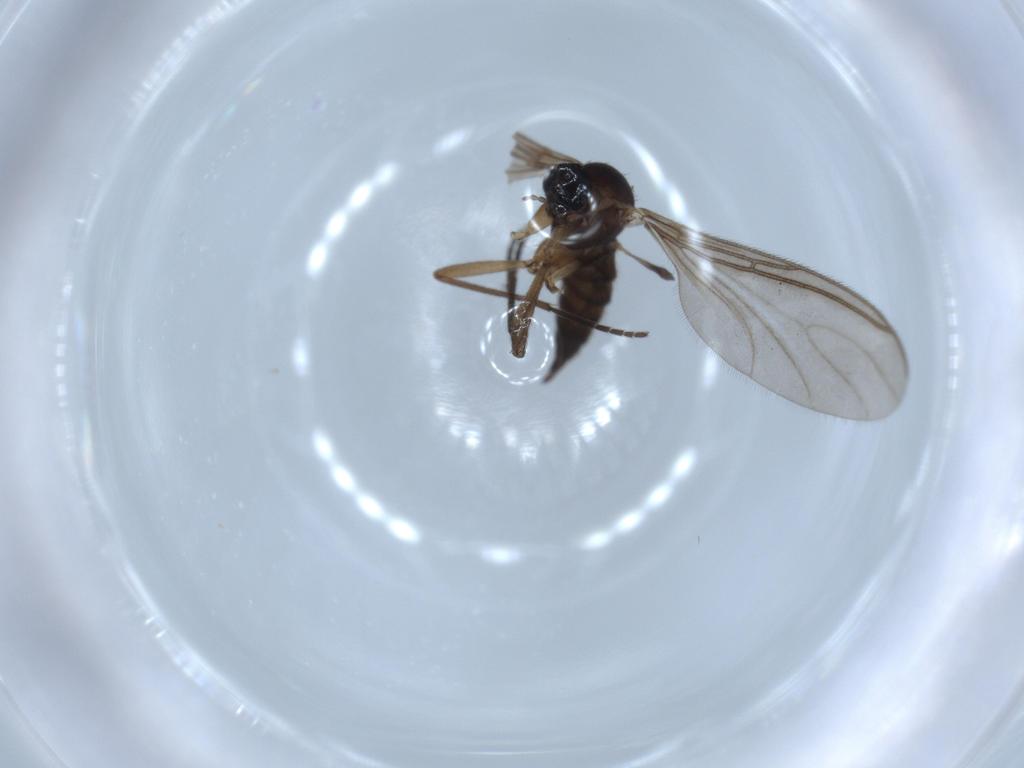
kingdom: Animalia
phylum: Arthropoda
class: Insecta
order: Diptera
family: Sciaridae
